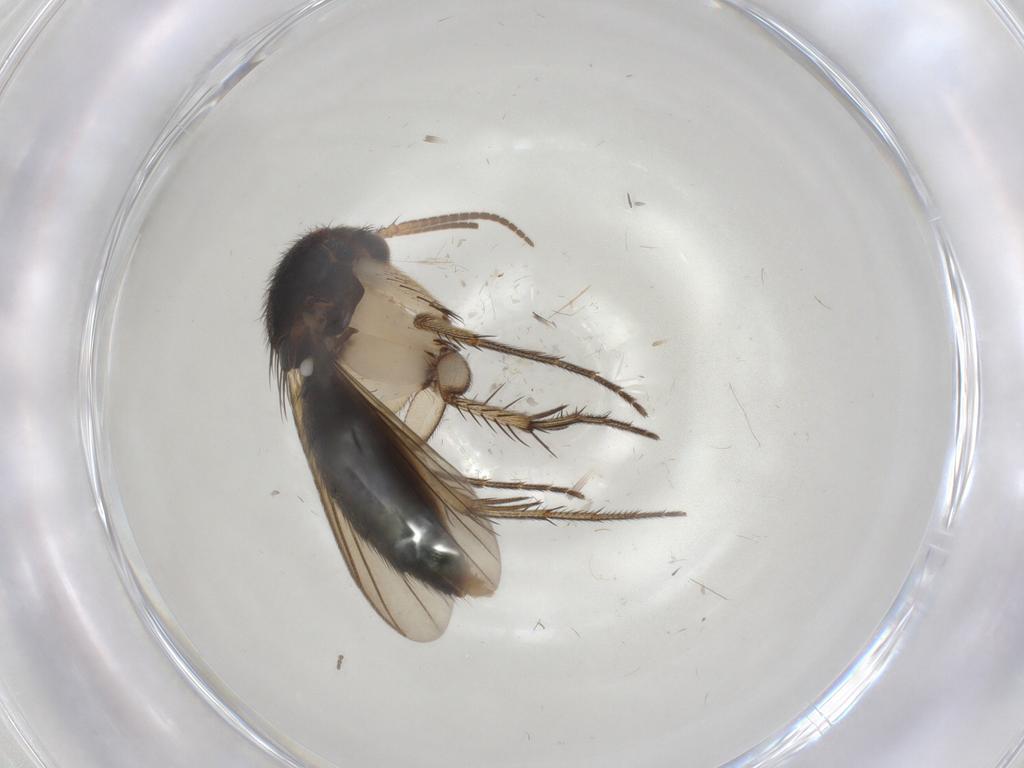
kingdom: Animalia
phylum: Arthropoda
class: Insecta
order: Diptera
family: Mycetophilidae
